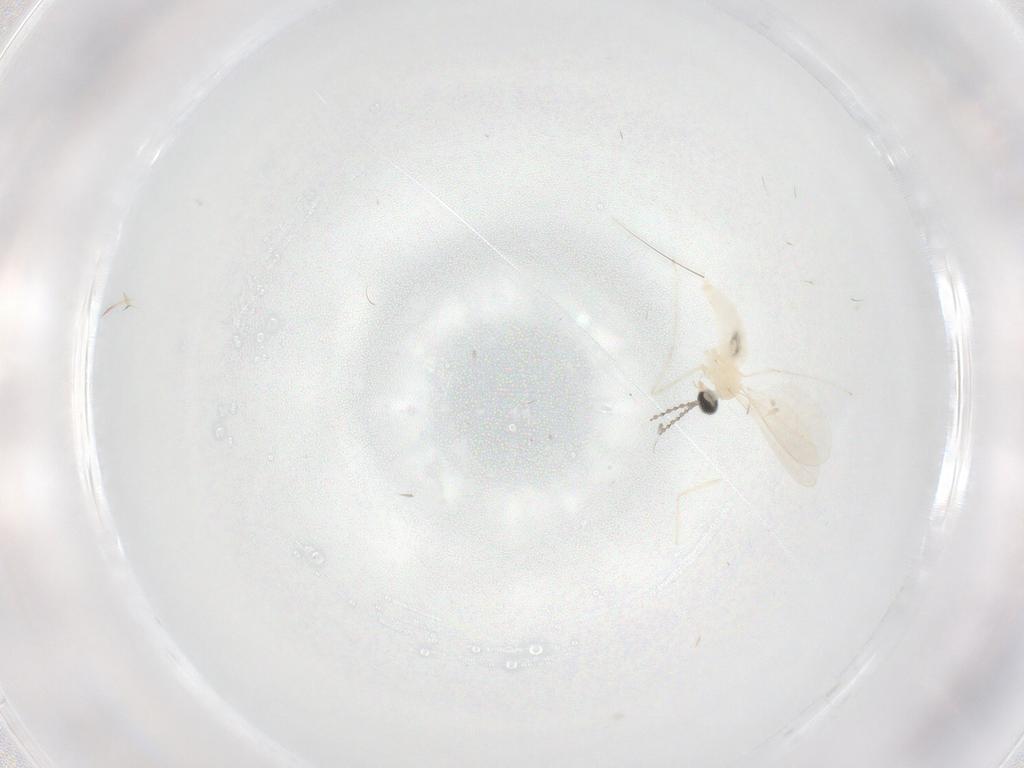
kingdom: Animalia
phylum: Arthropoda
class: Insecta
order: Diptera
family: Cecidomyiidae
